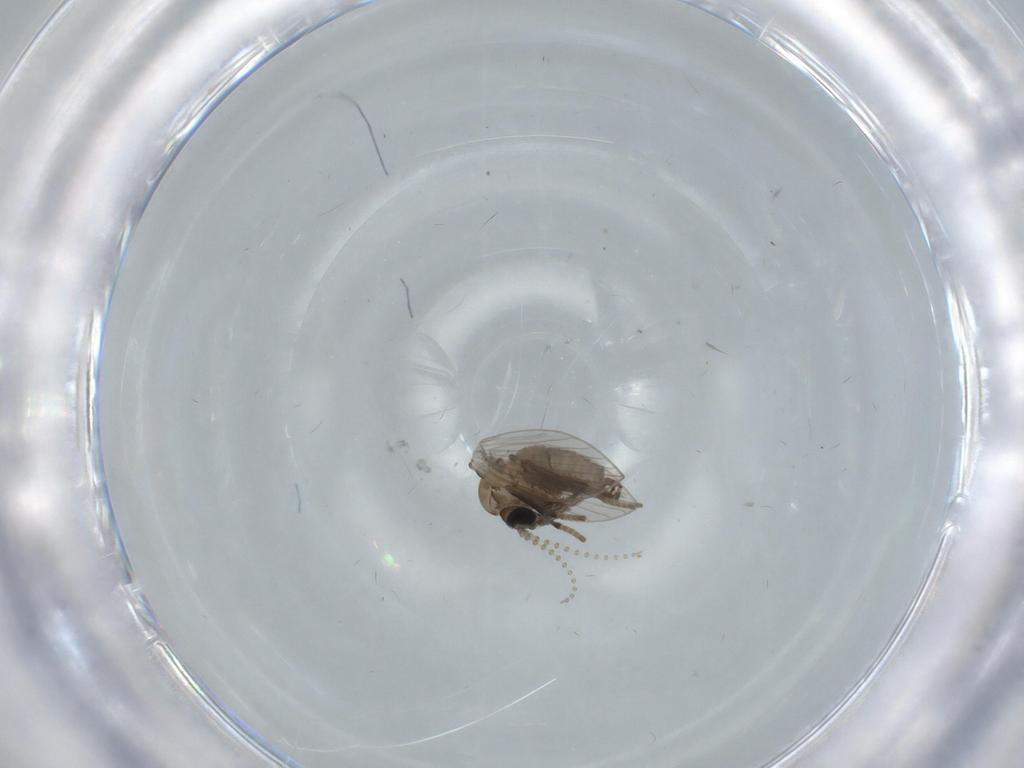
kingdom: Animalia
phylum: Arthropoda
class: Insecta
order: Diptera
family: Psychodidae
